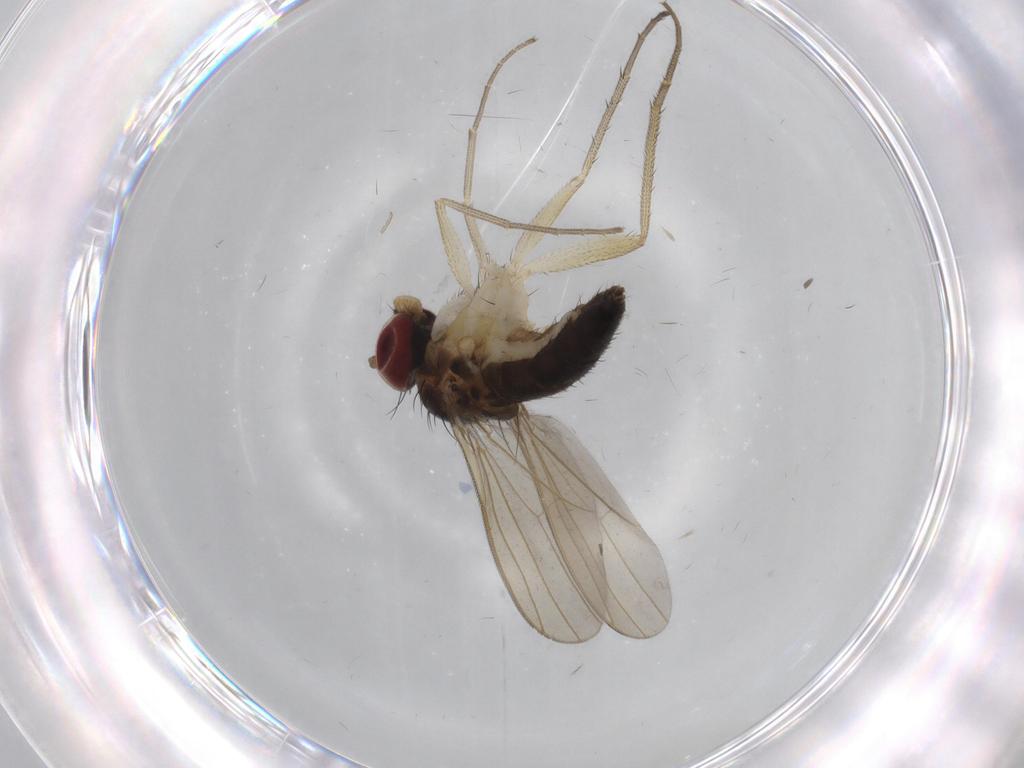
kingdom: Animalia
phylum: Arthropoda
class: Insecta
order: Diptera
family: Dolichopodidae
